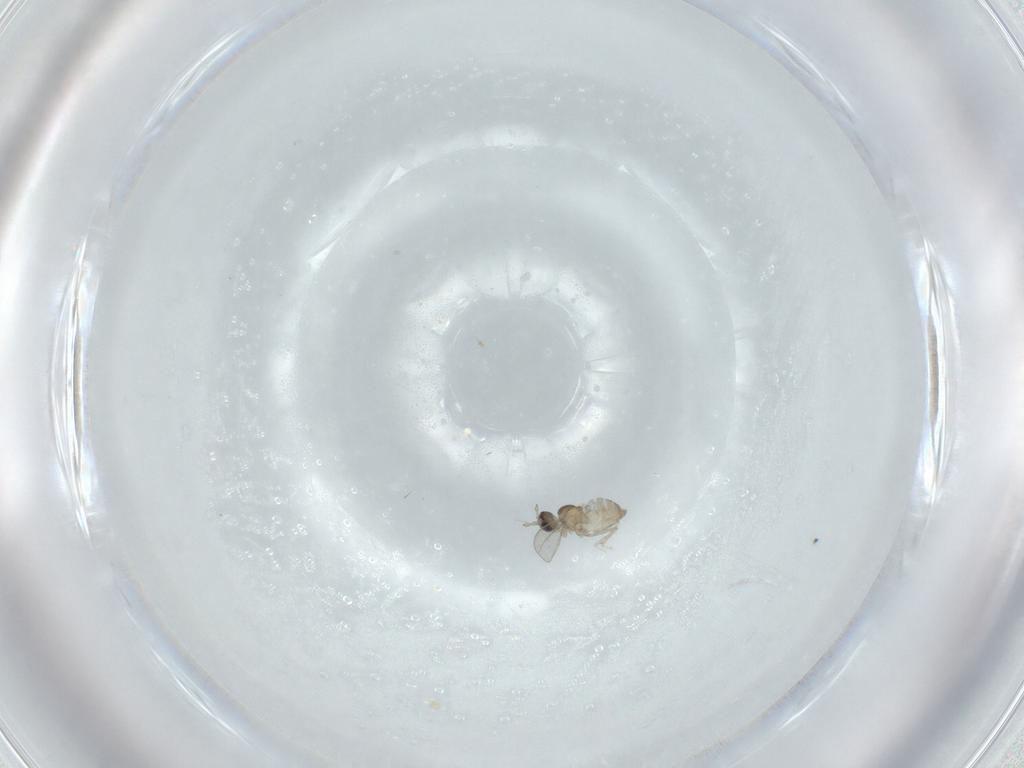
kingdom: Animalia
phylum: Arthropoda
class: Insecta
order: Diptera
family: Cecidomyiidae
